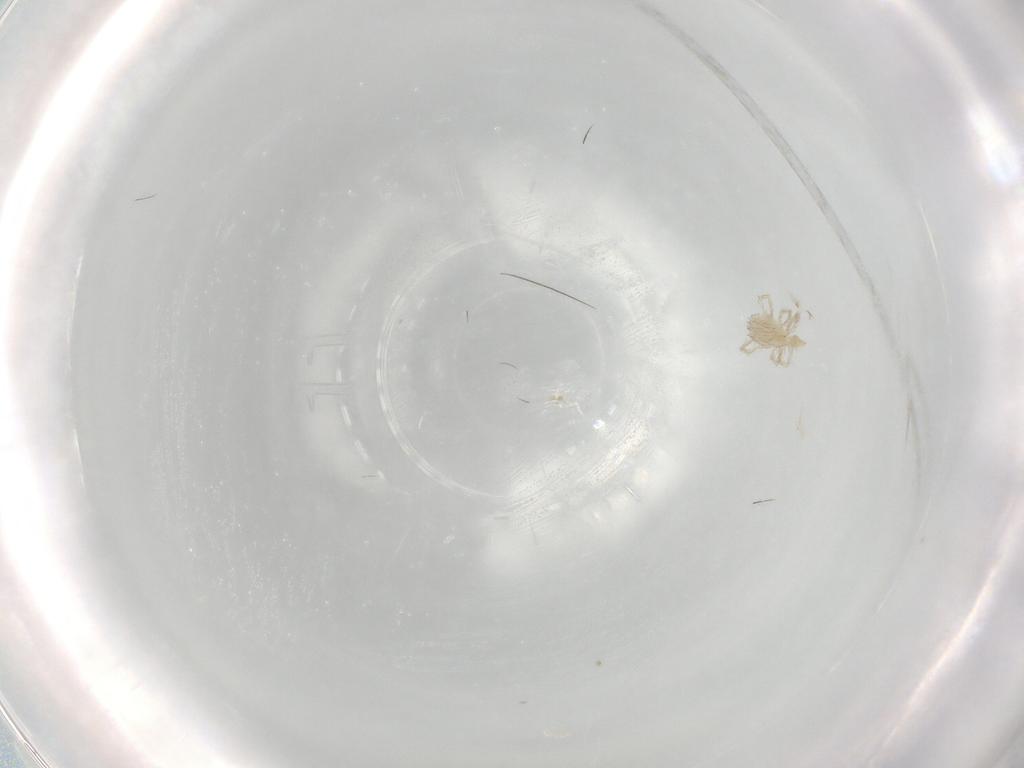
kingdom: Animalia
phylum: Arthropoda
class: Arachnida
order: Trombidiformes
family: Erythraeidae
